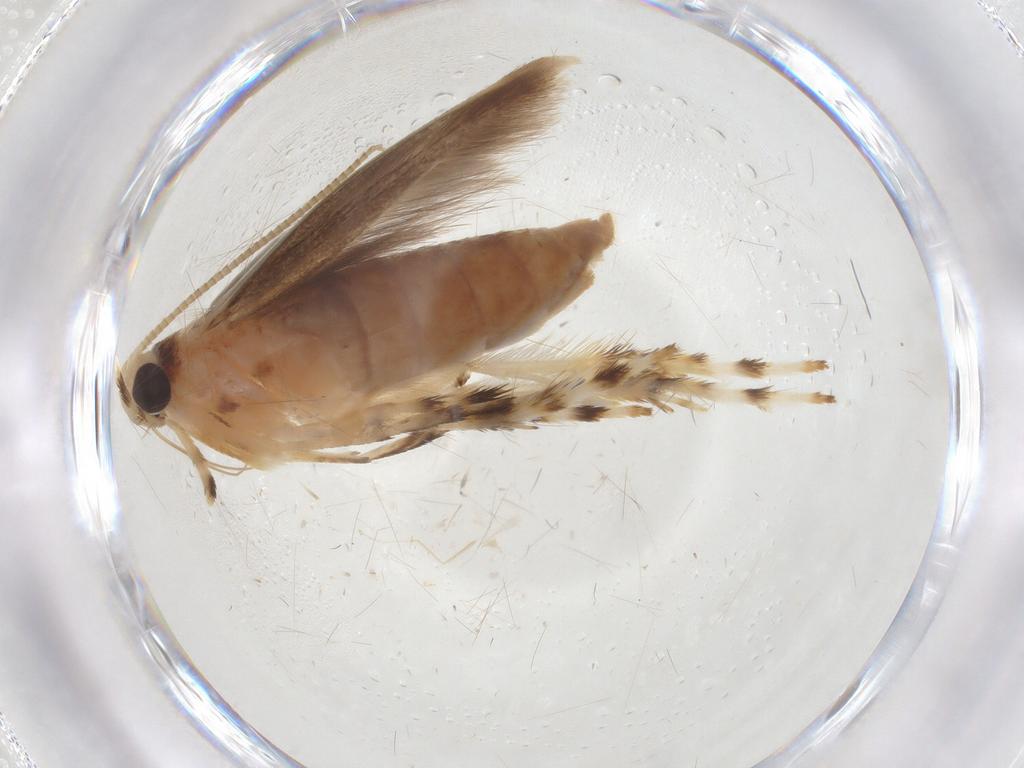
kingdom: Animalia
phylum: Arthropoda
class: Insecta
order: Lepidoptera
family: Gracillariidae
